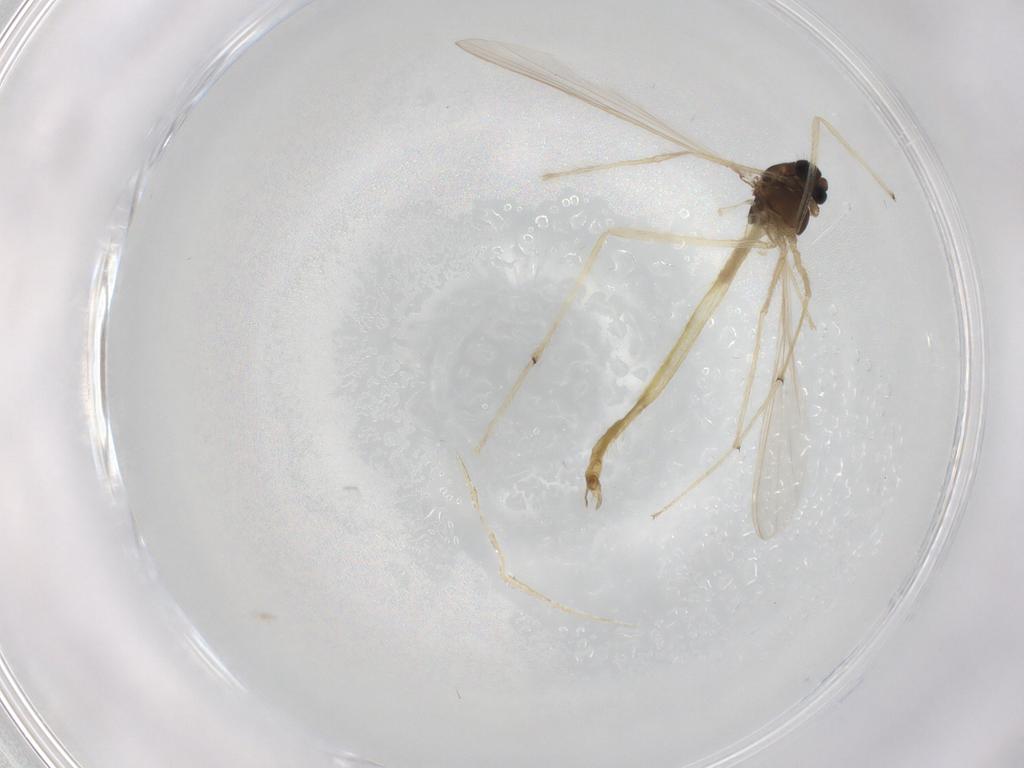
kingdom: Animalia
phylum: Arthropoda
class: Insecta
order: Diptera
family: Chironomidae
